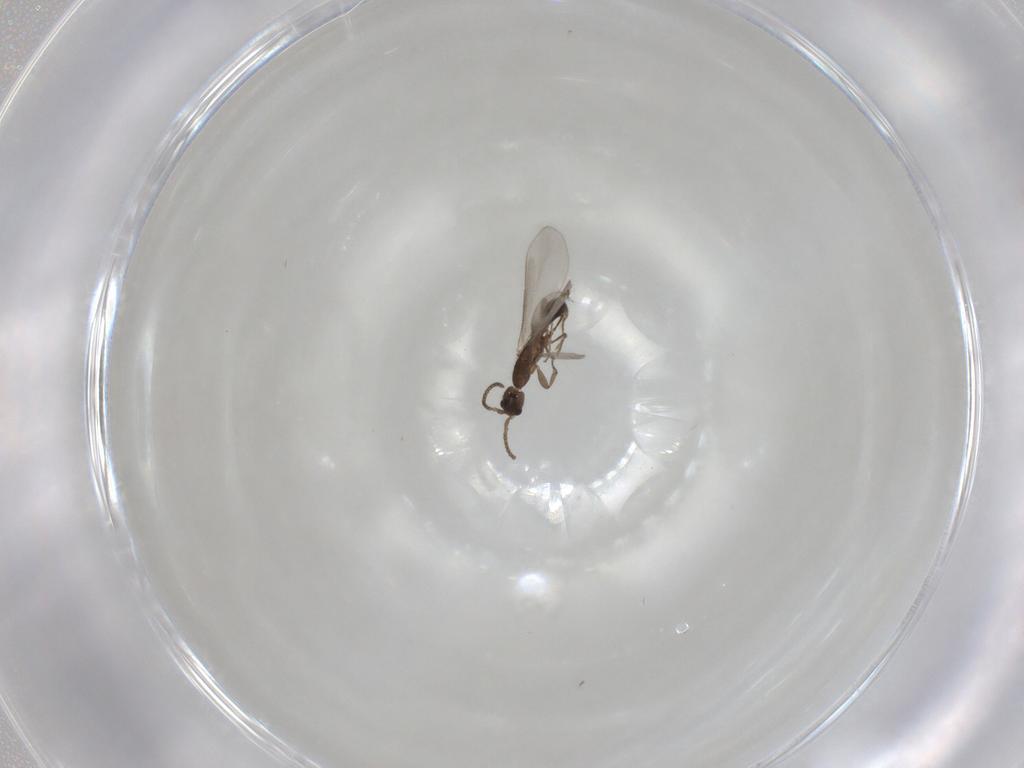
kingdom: Animalia
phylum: Arthropoda
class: Insecta
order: Hymenoptera
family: Formicidae
